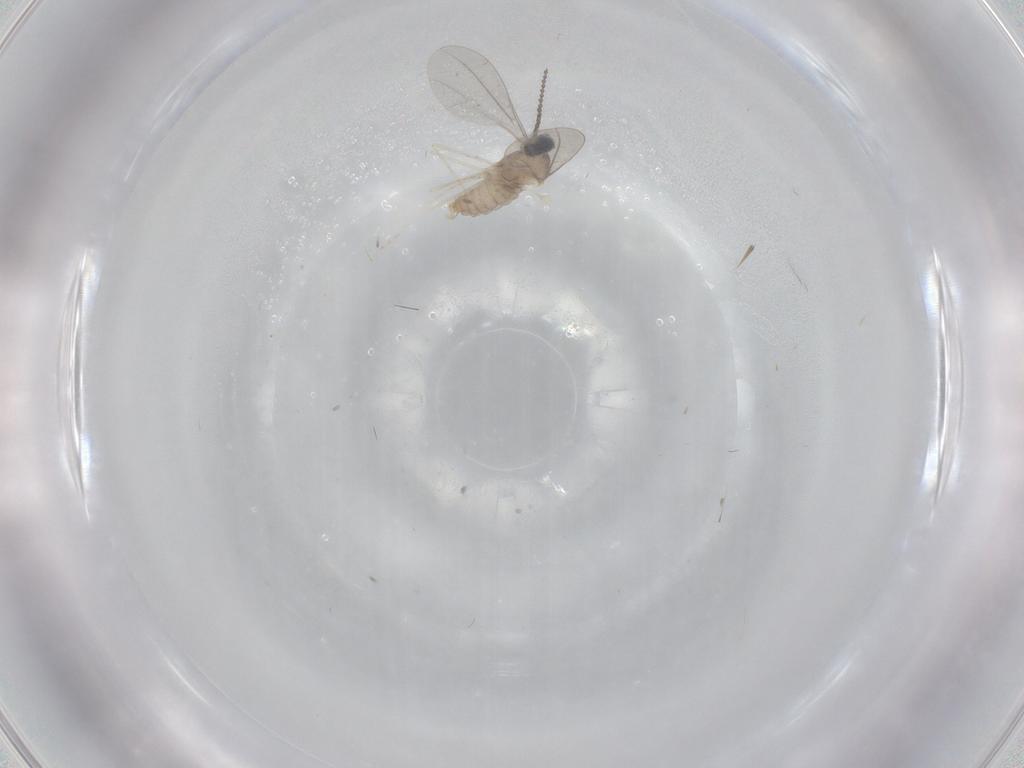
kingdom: Animalia
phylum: Arthropoda
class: Insecta
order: Diptera
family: Cecidomyiidae
